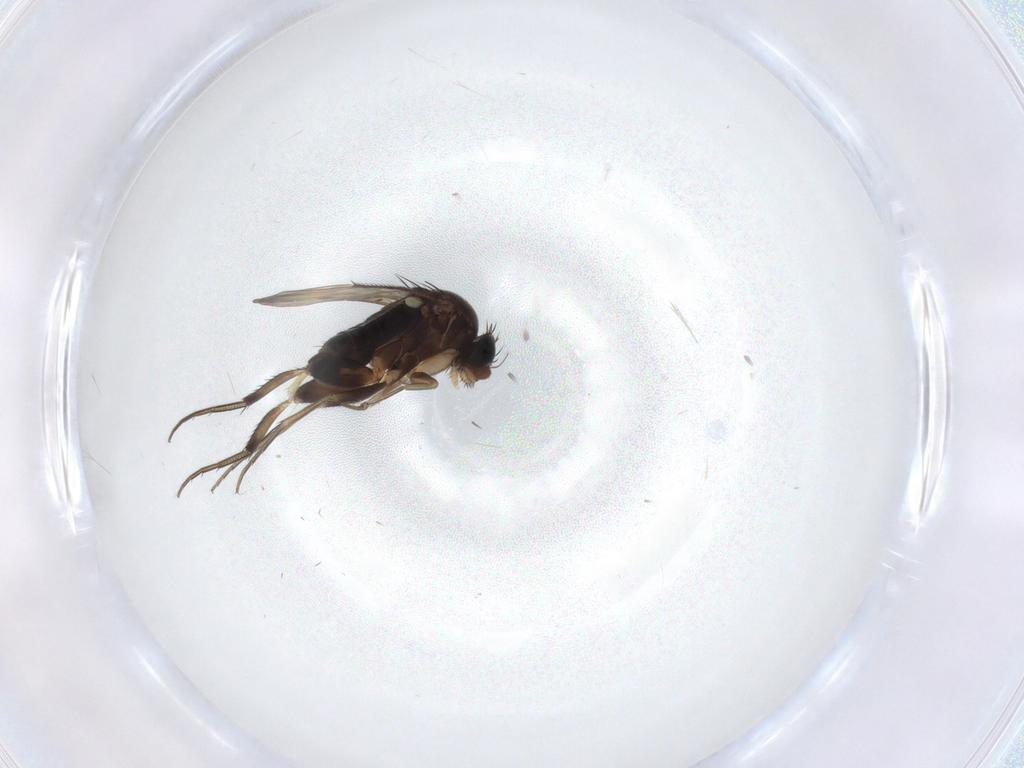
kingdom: Animalia
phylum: Arthropoda
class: Insecta
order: Diptera
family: Phoridae
